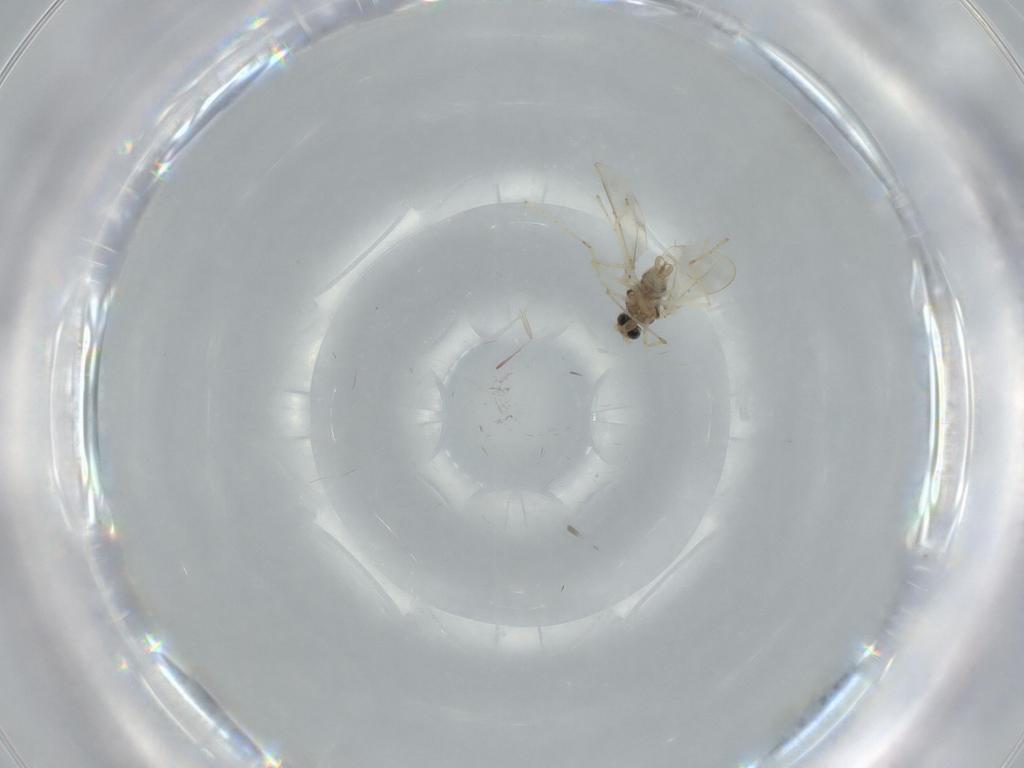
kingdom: Animalia
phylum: Arthropoda
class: Insecta
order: Diptera
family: Cecidomyiidae
